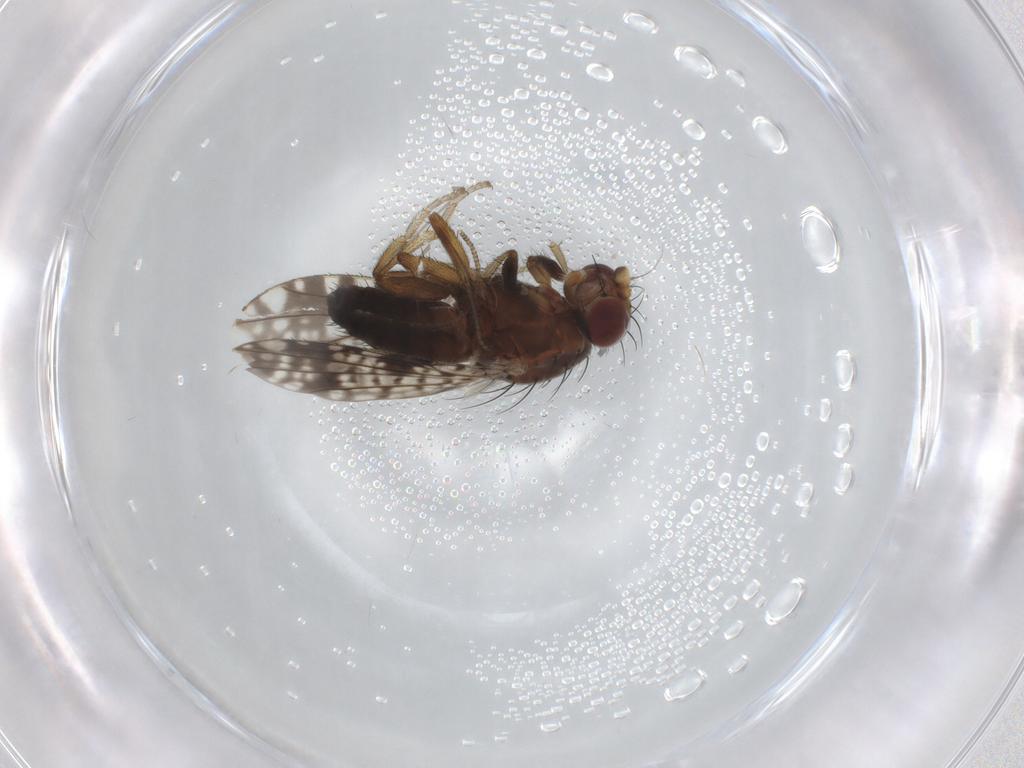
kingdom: Animalia
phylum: Arthropoda
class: Insecta
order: Diptera
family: Tephritidae
